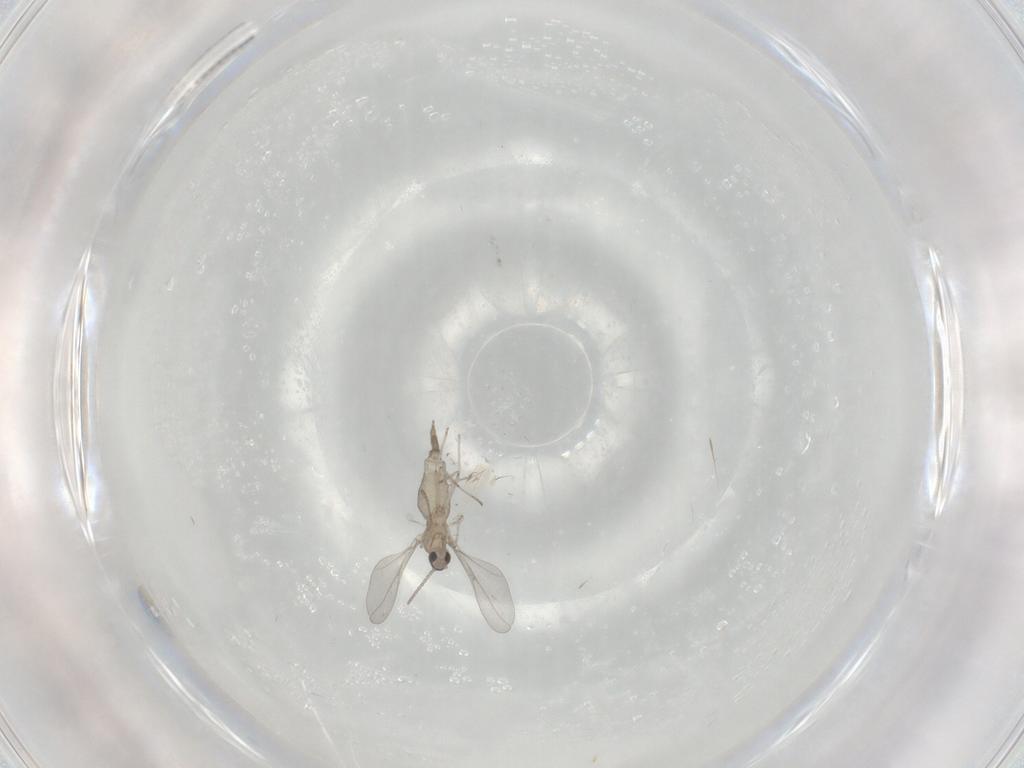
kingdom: Animalia
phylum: Arthropoda
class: Insecta
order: Diptera
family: Cecidomyiidae
